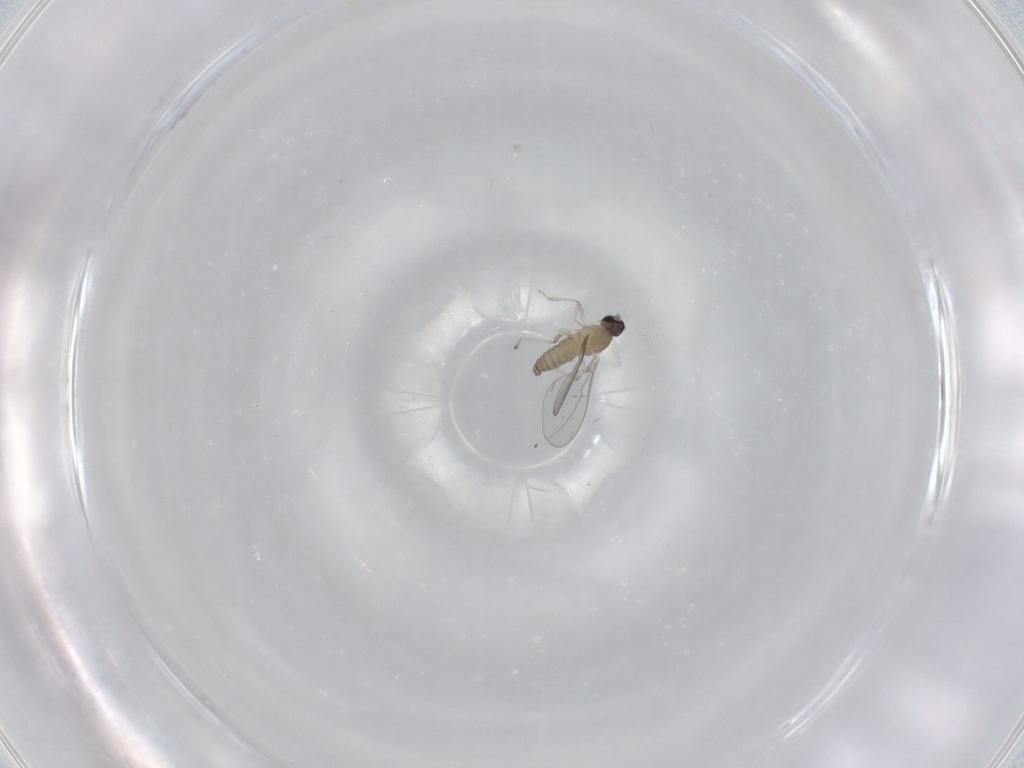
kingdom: Animalia
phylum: Arthropoda
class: Insecta
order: Diptera
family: Cecidomyiidae
